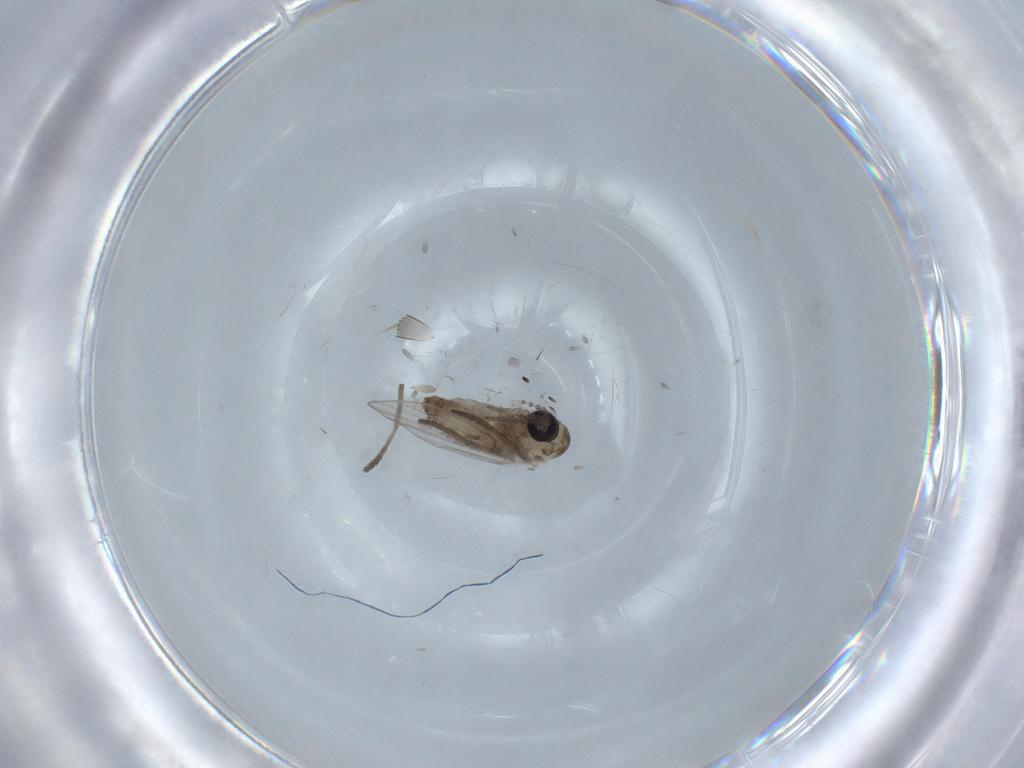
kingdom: Animalia
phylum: Arthropoda
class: Insecta
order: Diptera
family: Psychodidae
